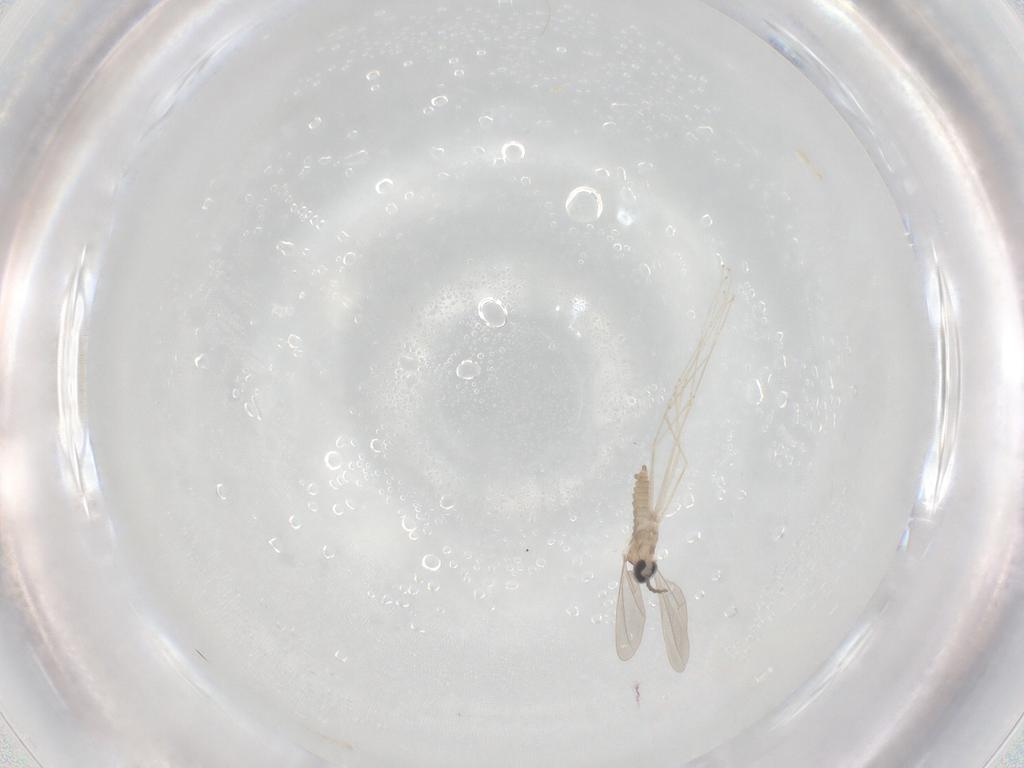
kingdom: Animalia
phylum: Arthropoda
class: Insecta
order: Diptera
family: Cecidomyiidae
